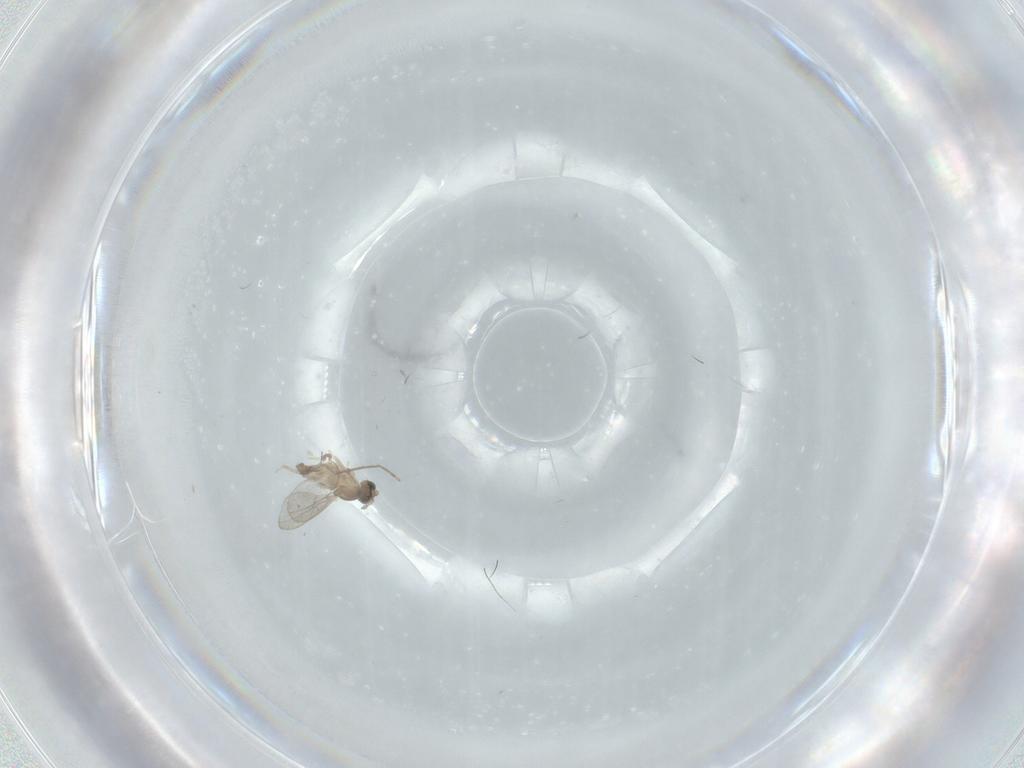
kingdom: Animalia
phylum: Arthropoda
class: Insecta
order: Diptera
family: Cecidomyiidae
